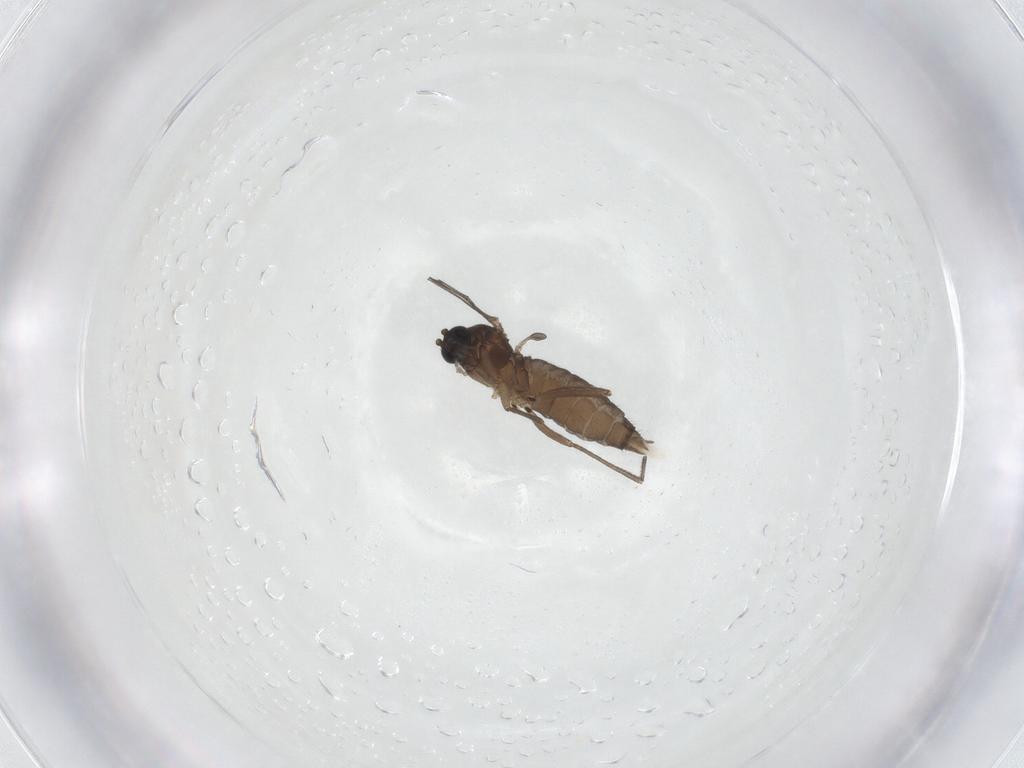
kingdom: Animalia
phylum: Arthropoda
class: Insecta
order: Diptera
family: Sciaridae
